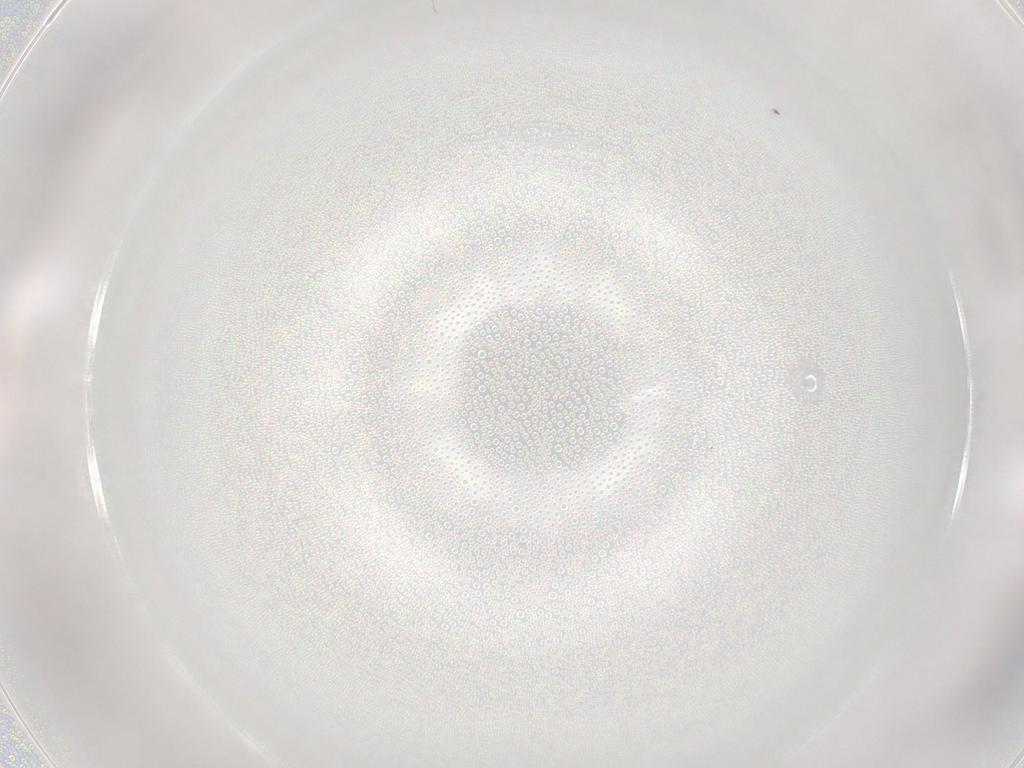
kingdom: Animalia
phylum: Arthropoda
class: Insecta
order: Diptera
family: Chironomidae
